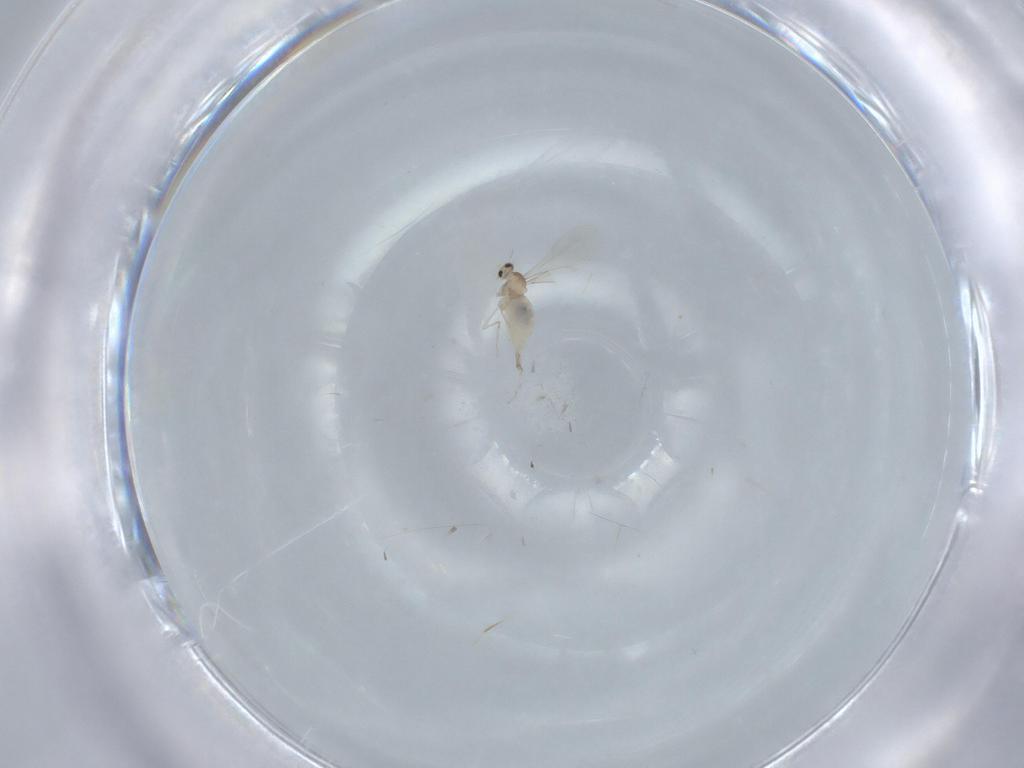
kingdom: Animalia
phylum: Arthropoda
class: Insecta
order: Diptera
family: Cecidomyiidae
